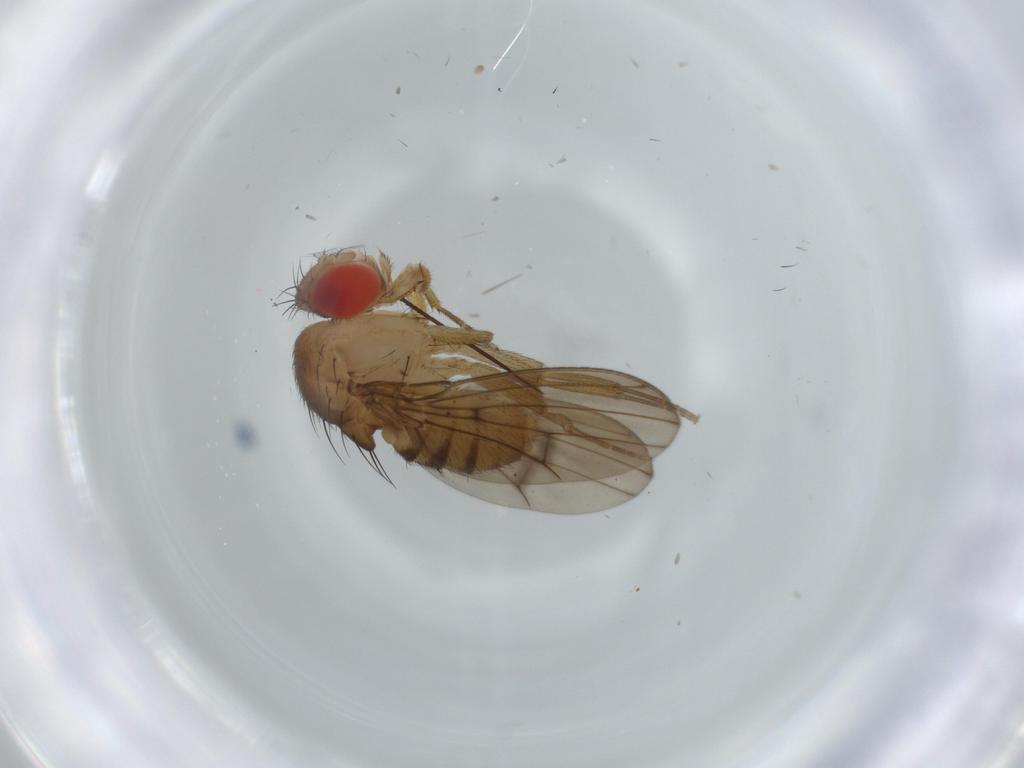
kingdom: Animalia
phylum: Arthropoda
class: Insecta
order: Diptera
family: Drosophilidae
